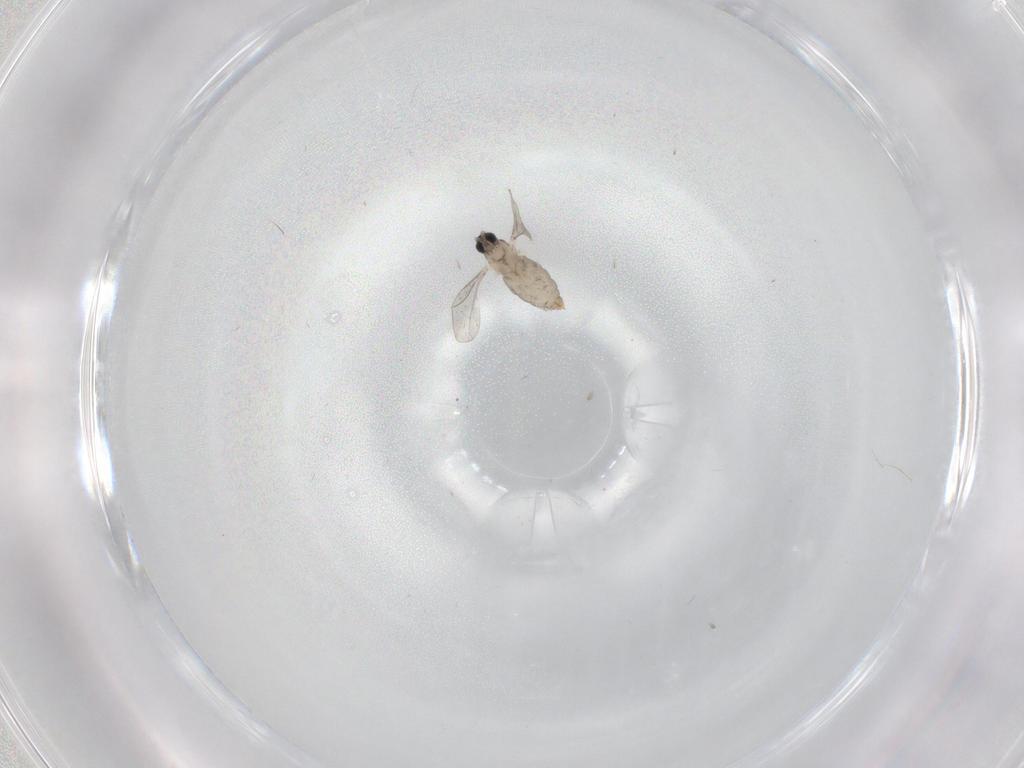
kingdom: Animalia
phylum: Arthropoda
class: Insecta
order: Diptera
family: Cecidomyiidae
